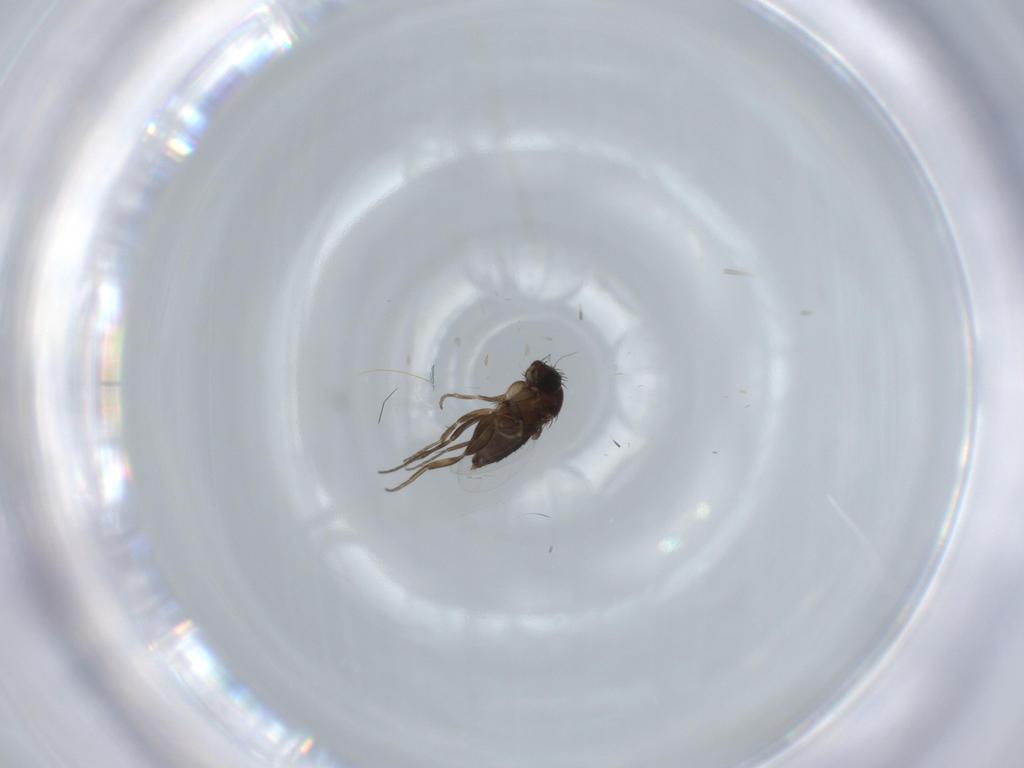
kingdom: Animalia
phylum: Arthropoda
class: Insecta
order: Diptera
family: Phoridae
